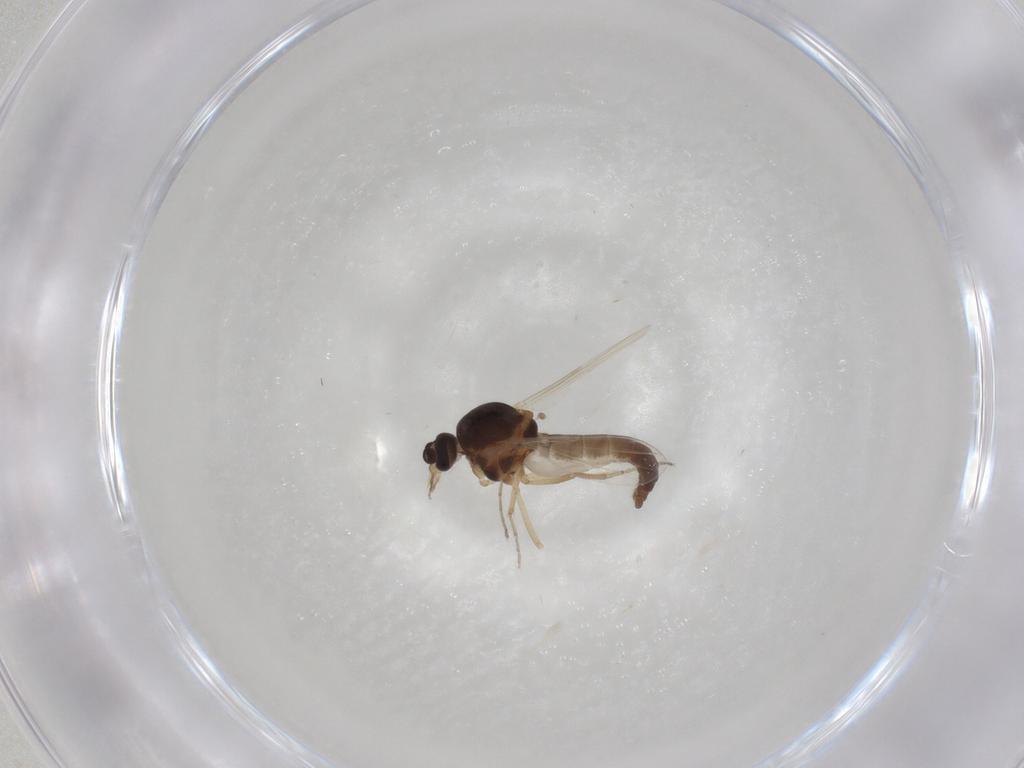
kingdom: Animalia
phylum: Arthropoda
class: Insecta
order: Diptera
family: Ceratopogonidae
